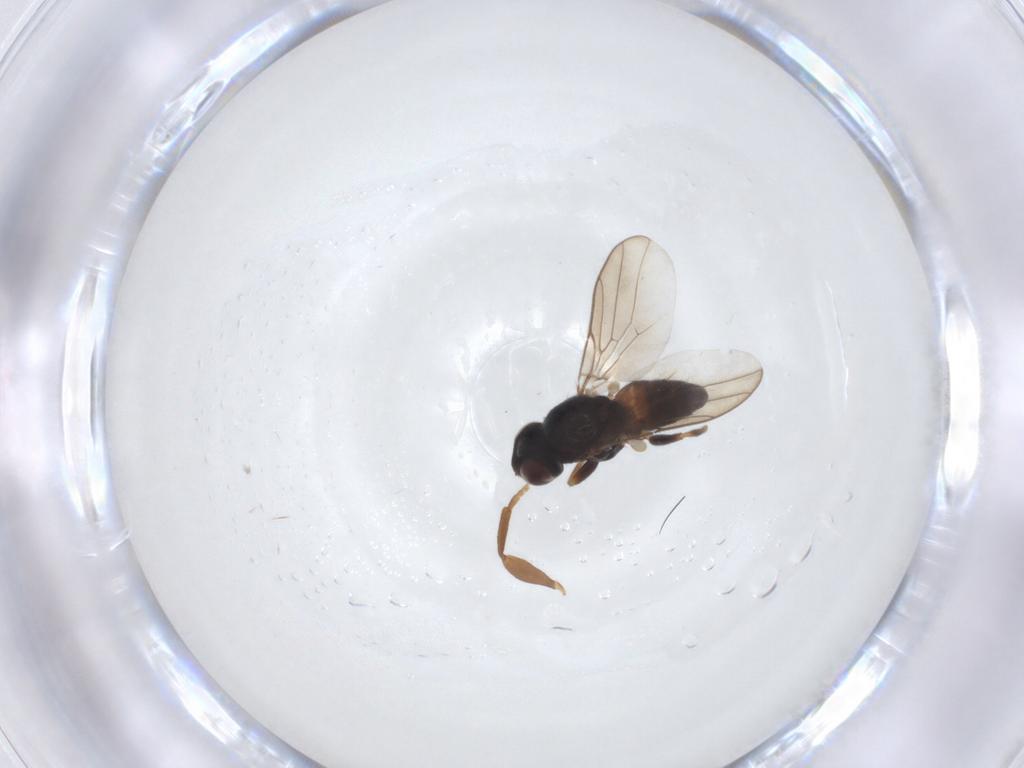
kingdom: Animalia
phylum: Arthropoda
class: Insecta
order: Diptera
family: Chloropidae
